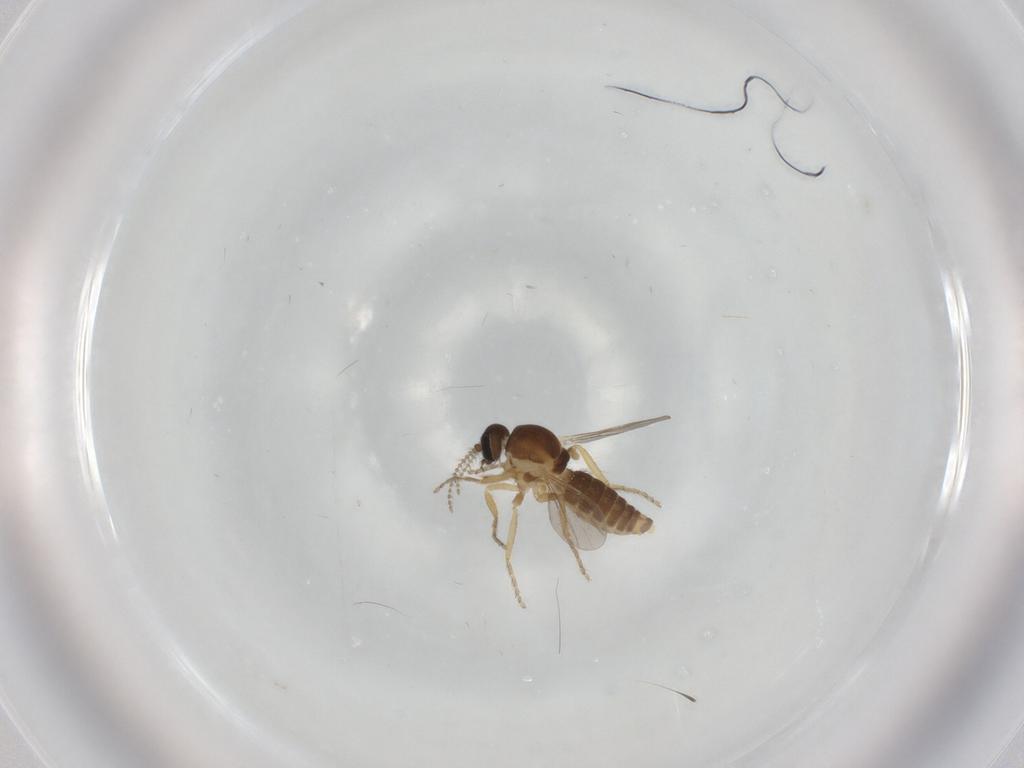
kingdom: Animalia
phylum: Arthropoda
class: Insecta
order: Diptera
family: Ceratopogonidae
